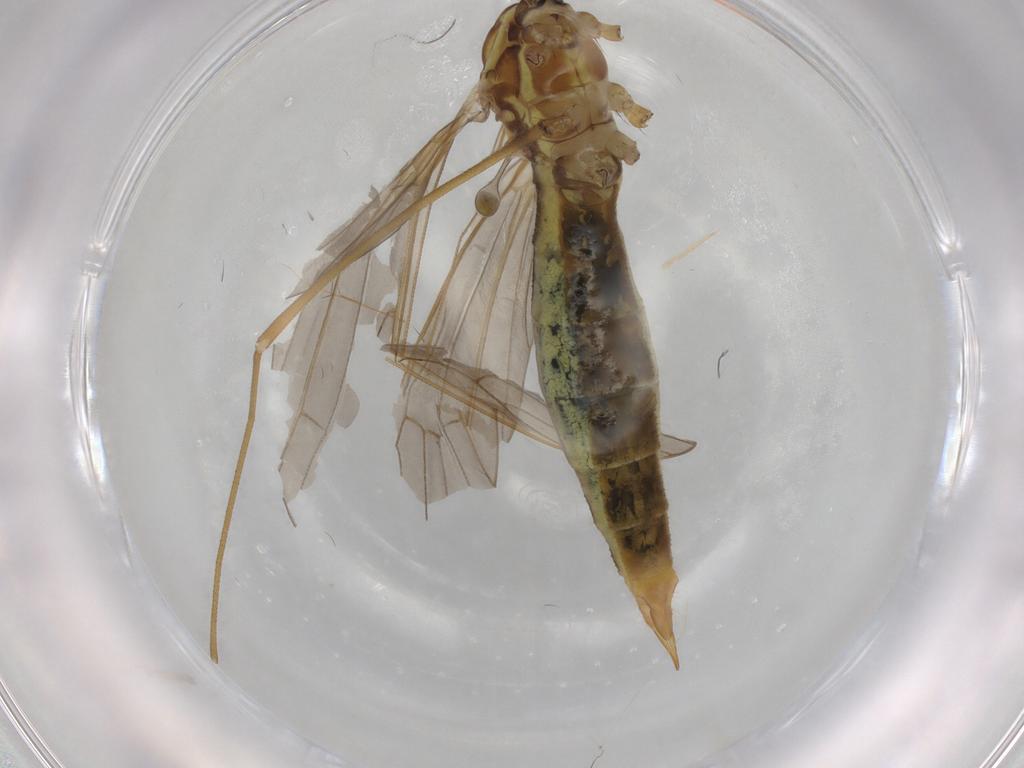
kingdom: Animalia
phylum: Arthropoda
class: Insecta
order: Diptera
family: Limoniidae
